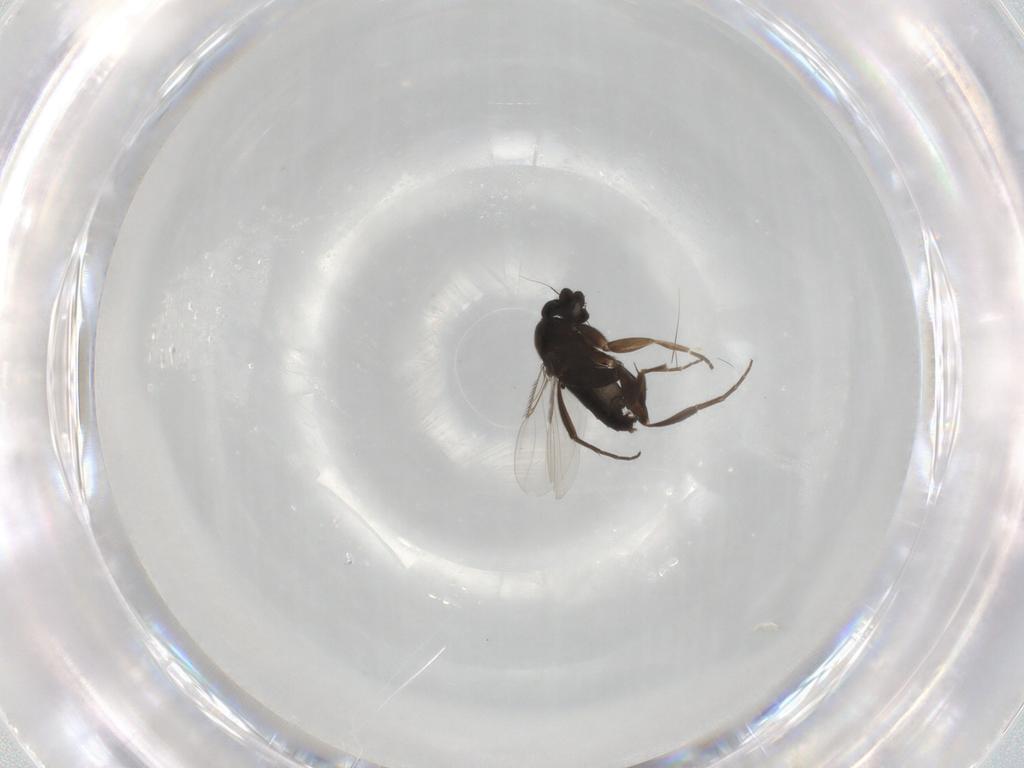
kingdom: Animalia
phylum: Arthropoda
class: Insecta
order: Diptera
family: Phoridae
